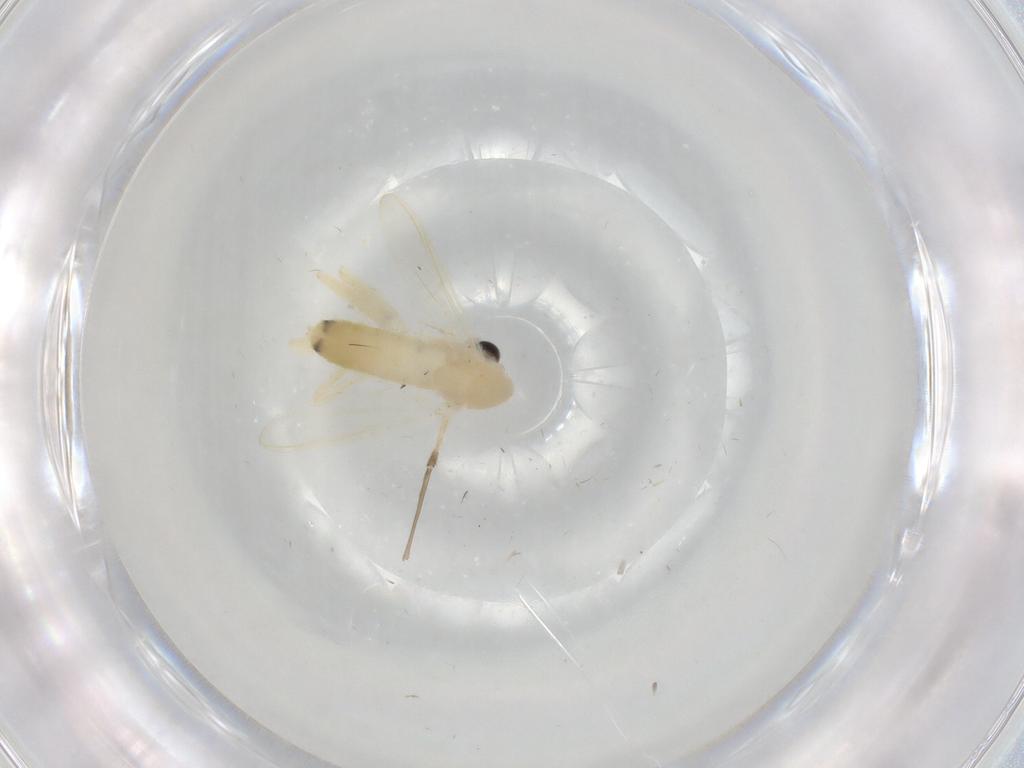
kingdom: Animalia
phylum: Arthropoda
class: Insecta
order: Diptera
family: Chironomidae
